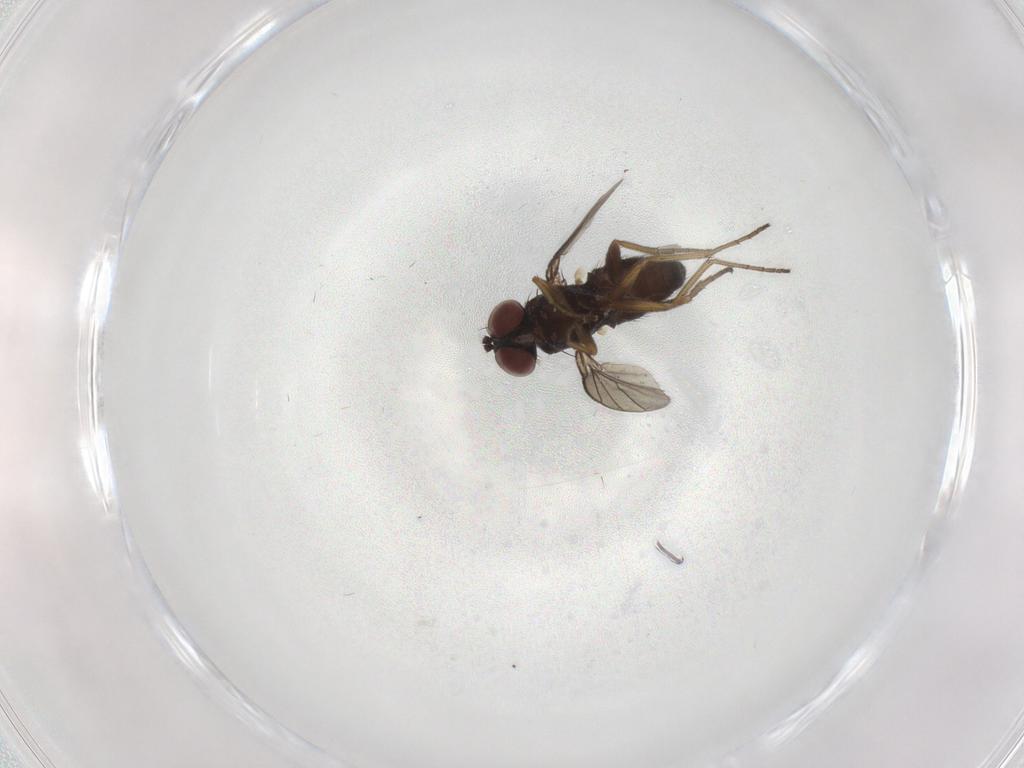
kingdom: Animalia
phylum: Arthropoda
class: Insecta
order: Diptera
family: Dolichopodidae
